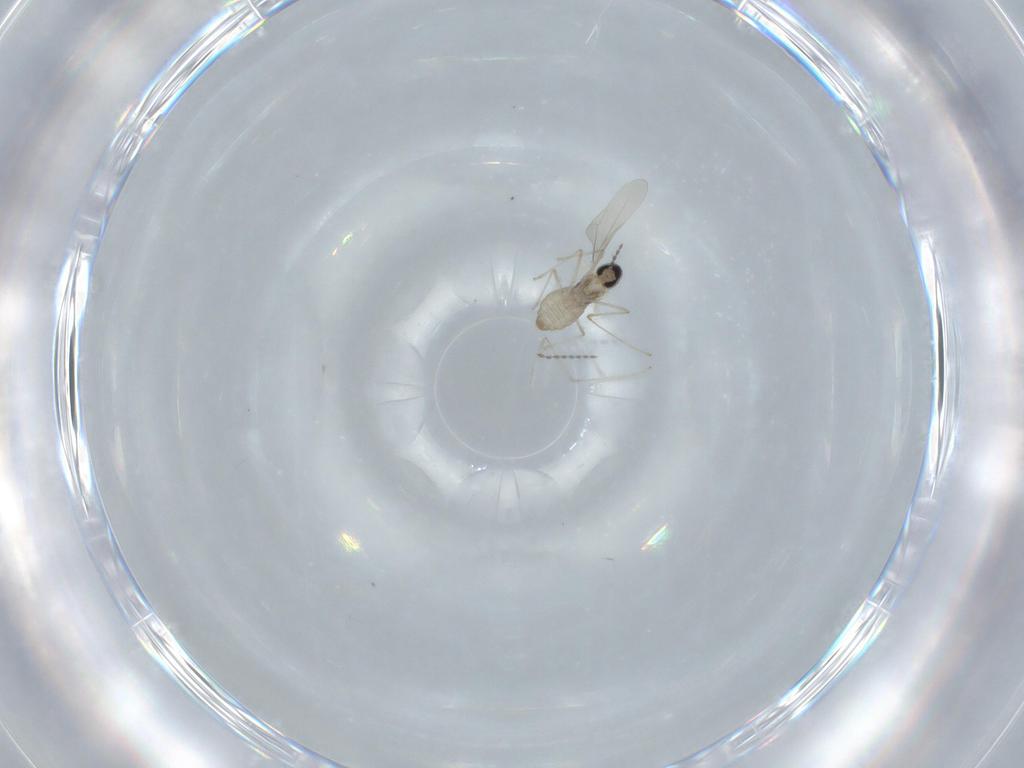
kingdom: Animalia
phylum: Arthropoda
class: Insecta
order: Diptera
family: Cecidomyiidae
